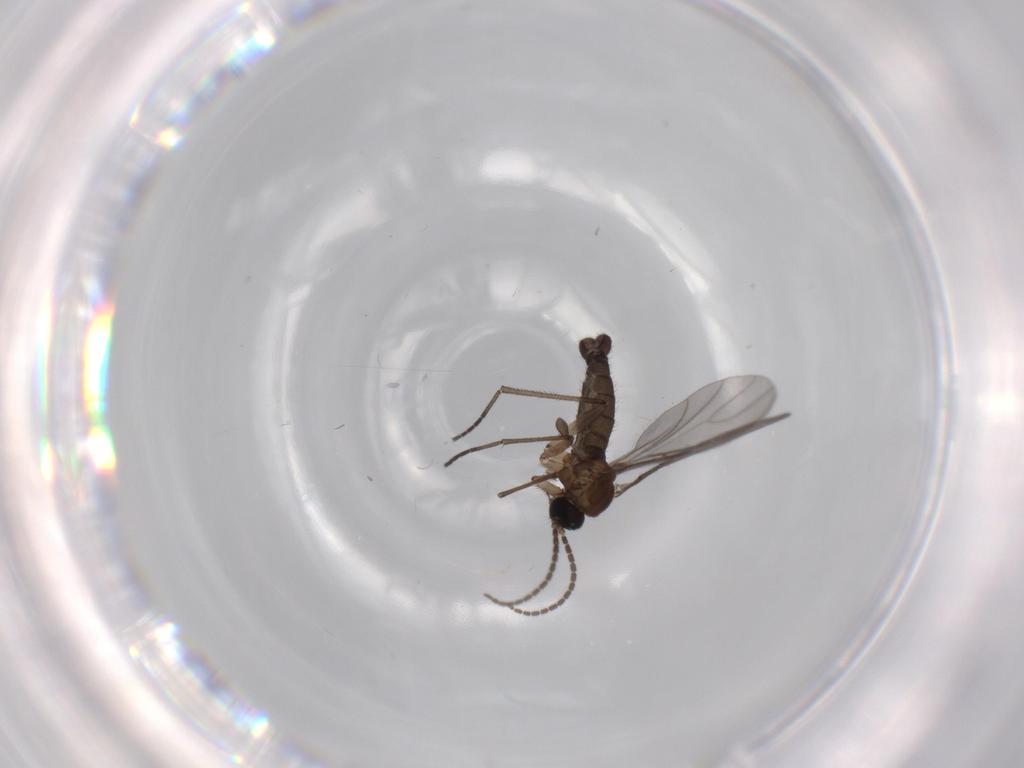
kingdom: Animalia
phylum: Arthropoda
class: Insecta
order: Diptera
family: Sciaridae
